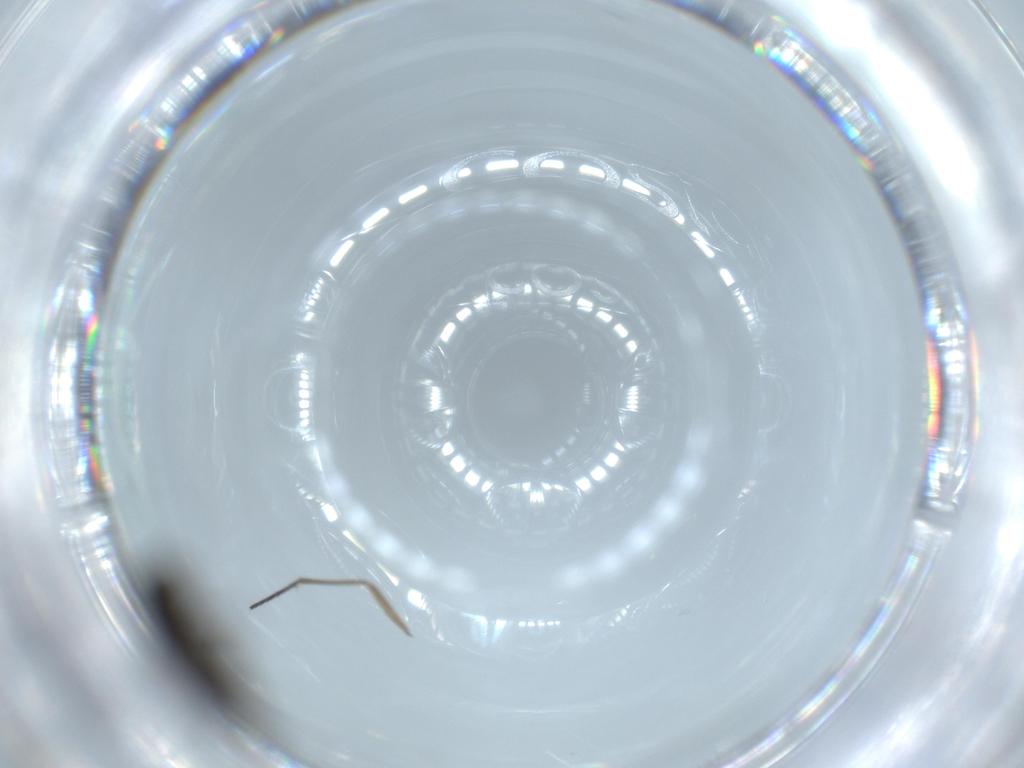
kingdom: Animalia
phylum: Arthropoda
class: Insecta
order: Diptera
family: Phoridae
